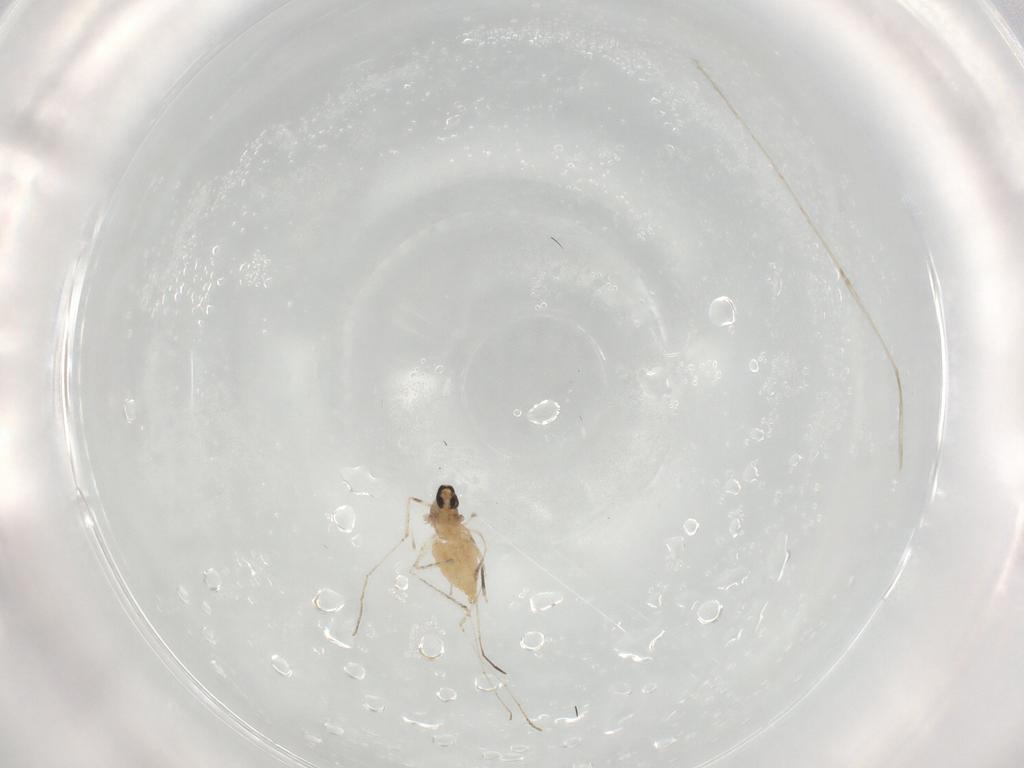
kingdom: Animalia
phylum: Arthropoda
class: Insecta
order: Diptera
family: Cecidomyiidae
